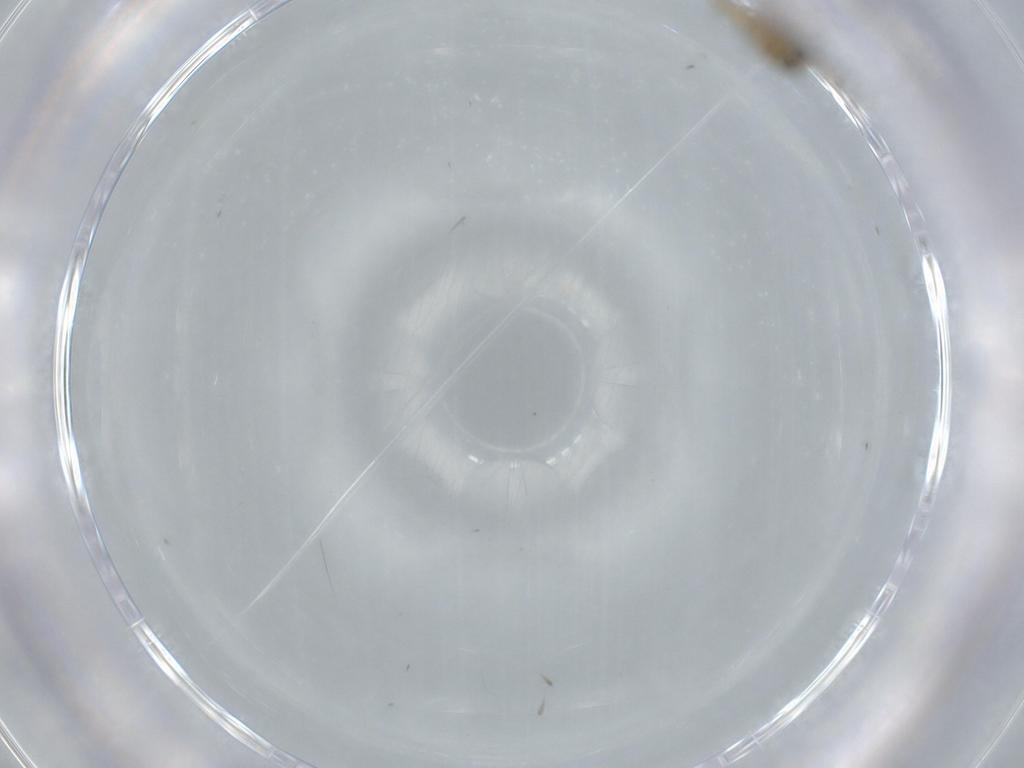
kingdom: Animalia
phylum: Arthropoda
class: Insecta
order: Diptera
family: Cecidomyiidae
